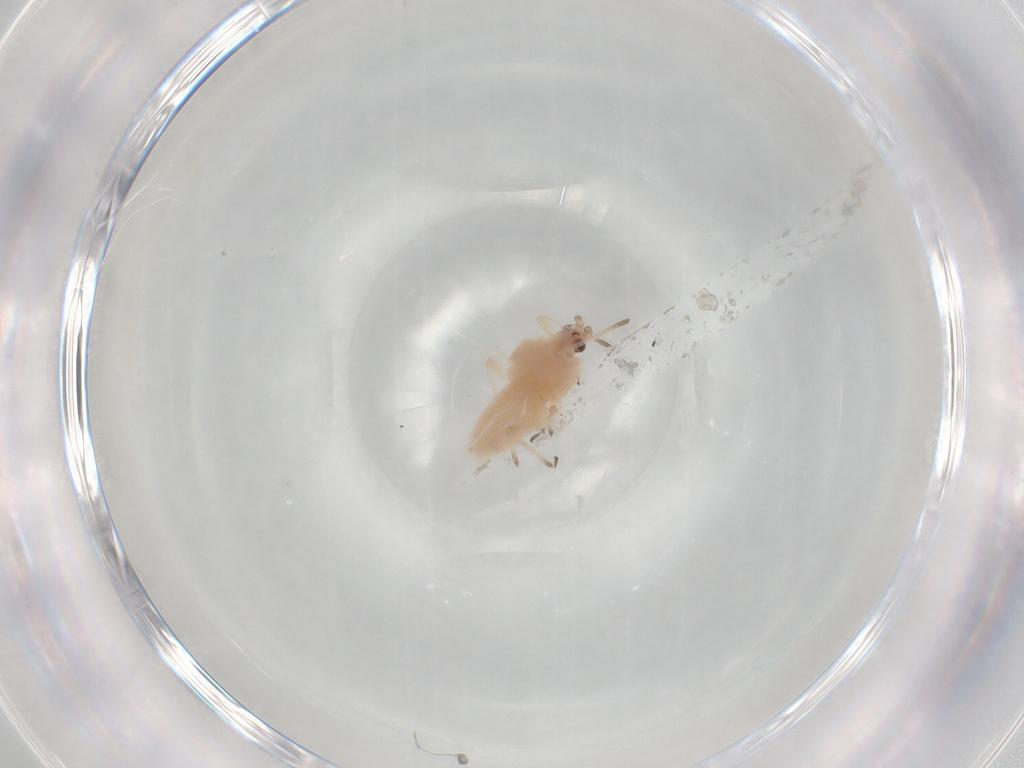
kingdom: Animalia
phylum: Arthropoda
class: Insecta
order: Hemiptera
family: Aphididae
